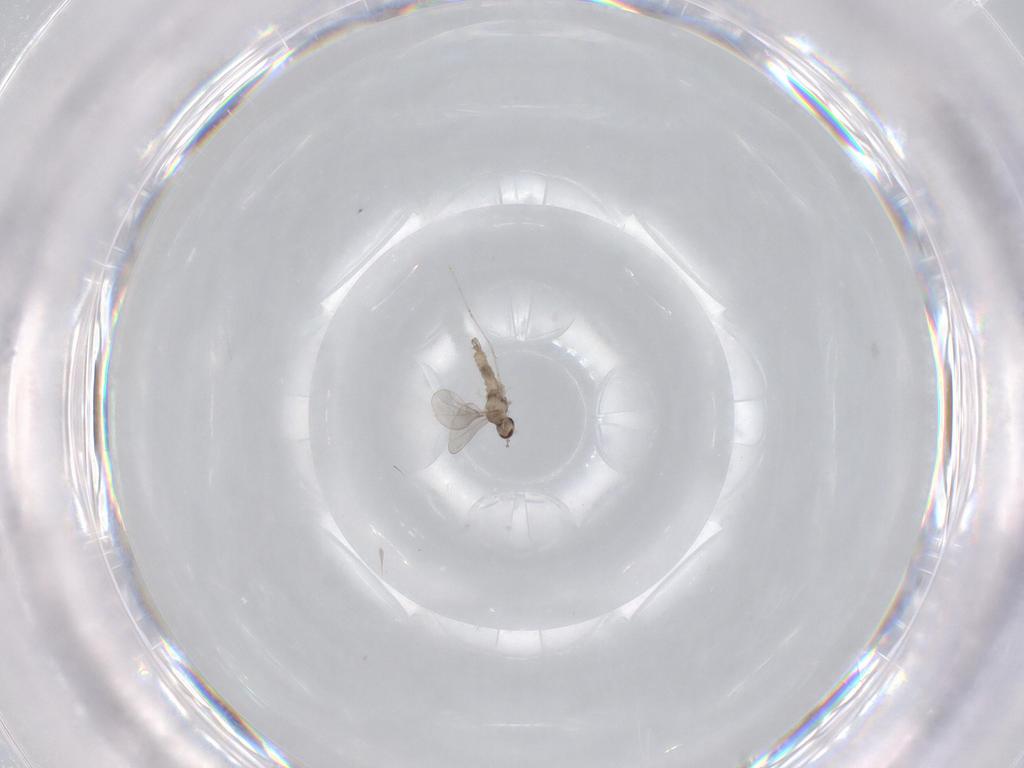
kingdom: Animalia
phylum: Arthropoda
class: Insecta
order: Diptera
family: Cecidomyiidae
